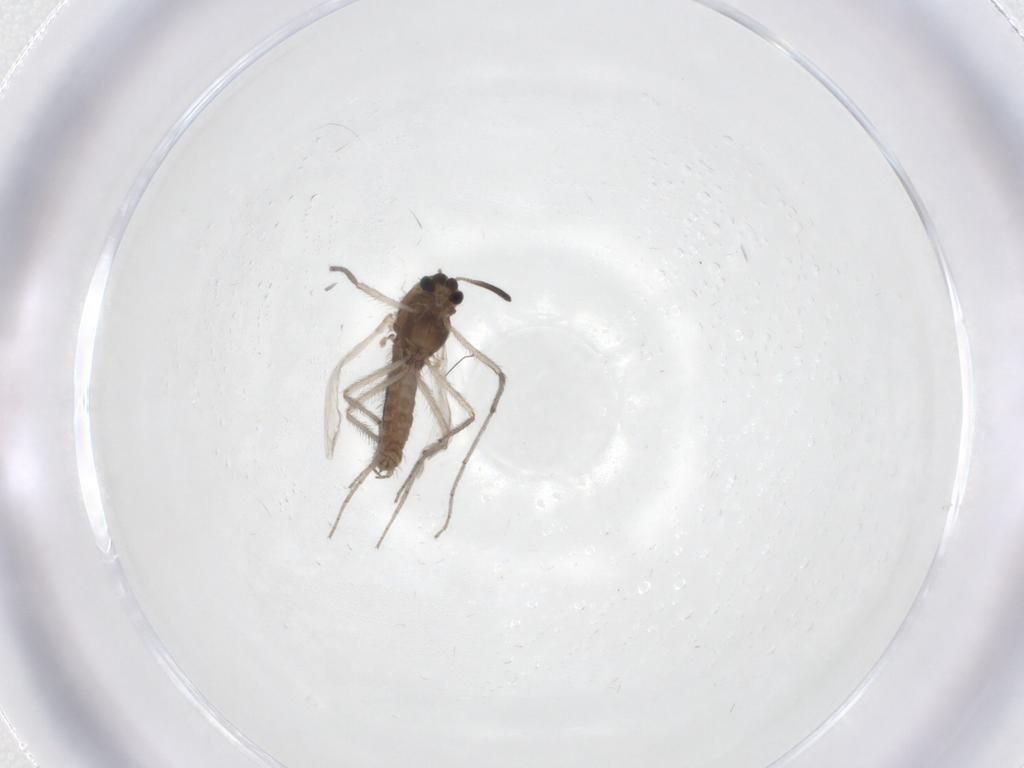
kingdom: Animalia
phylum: Arthropoda
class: Insecta
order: Diptera
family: Chironomidae
